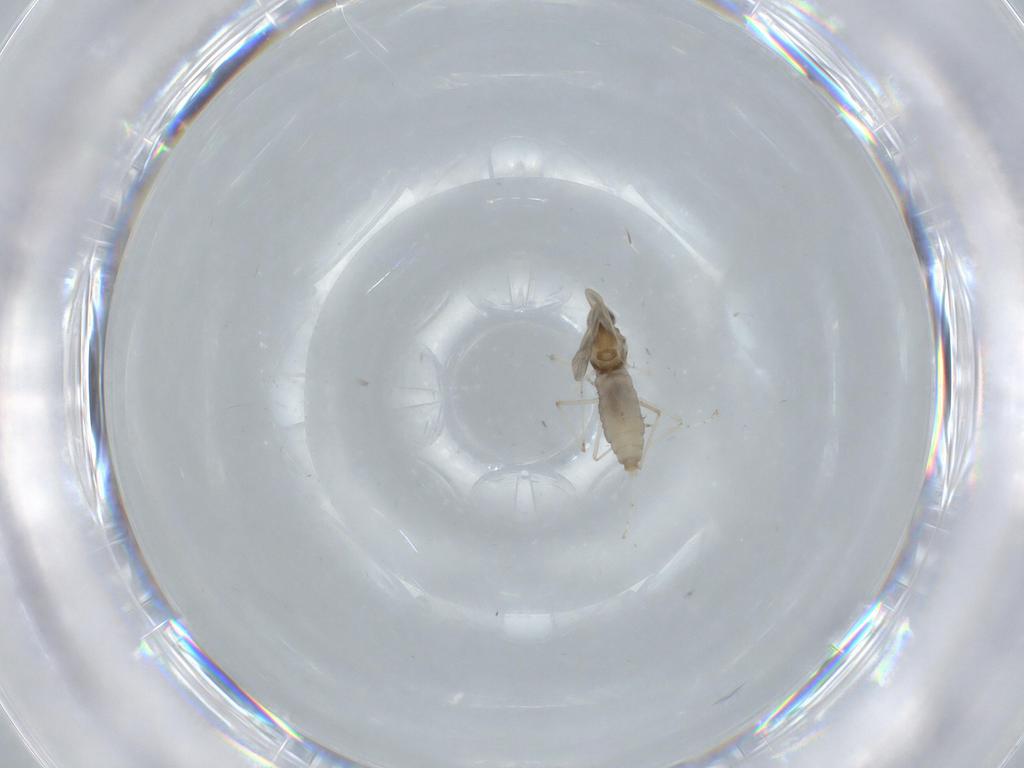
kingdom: Animalia
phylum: Arthropoda
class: Insecta
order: Diptera
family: Cecidomyiidae
